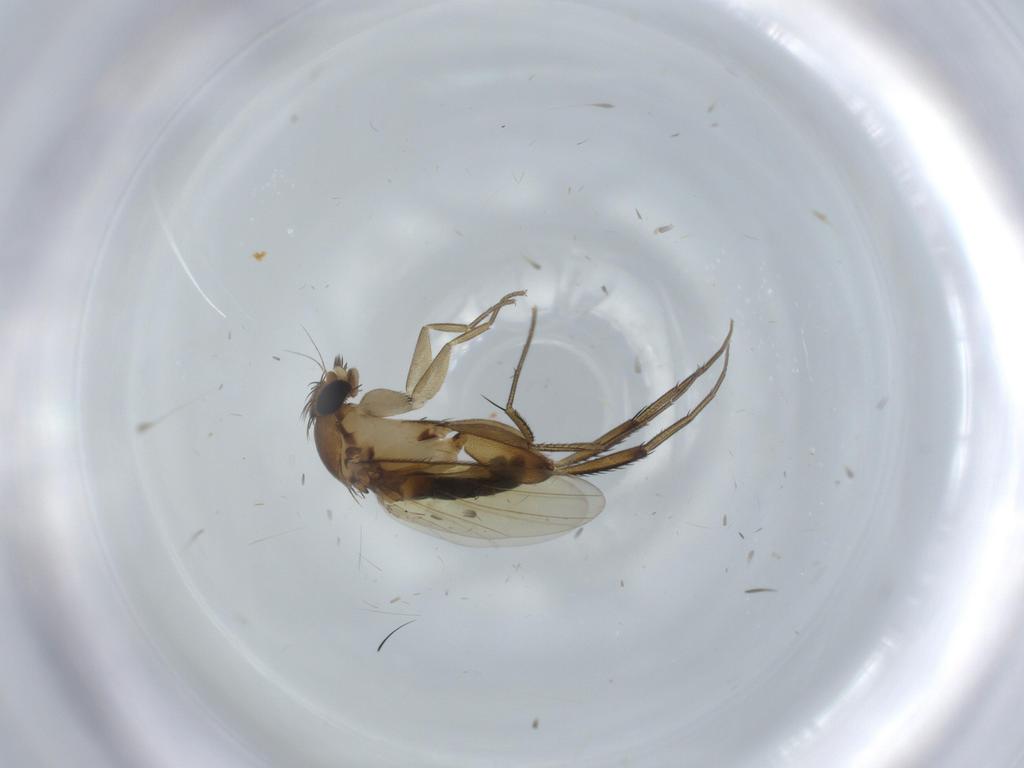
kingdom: Animalia
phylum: Arthropoda
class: Insecta
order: Diptera
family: Phoridae
